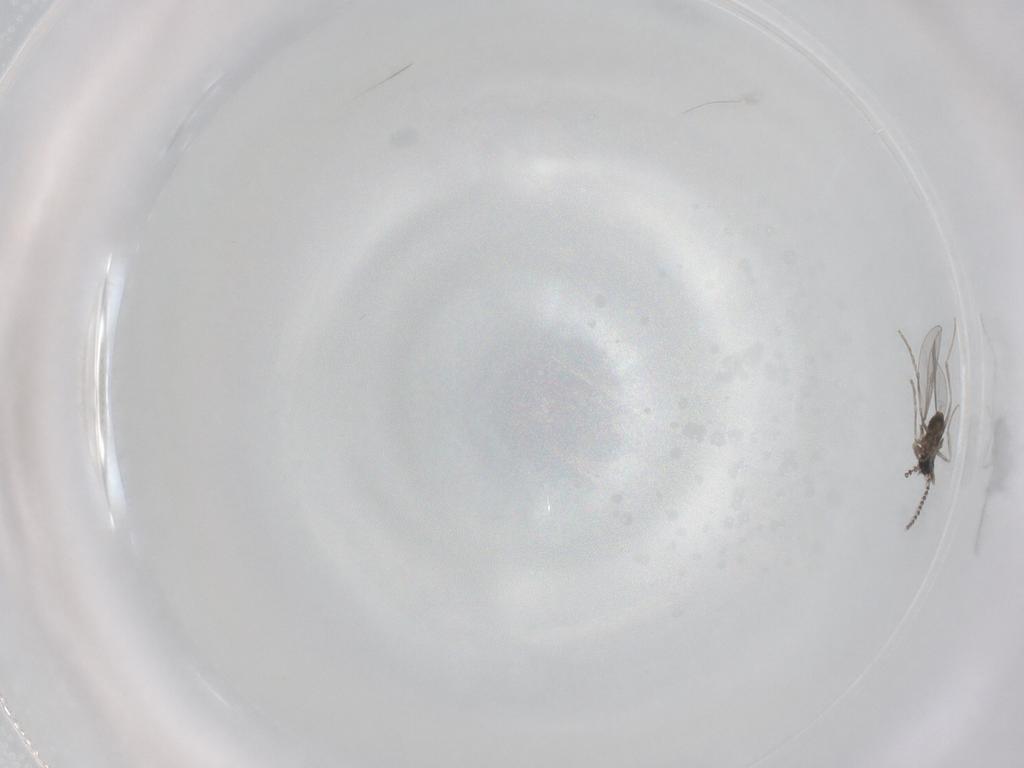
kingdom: Animalia
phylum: Arthropoda
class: Insecta
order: Diptera
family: Cecidomyiidae
